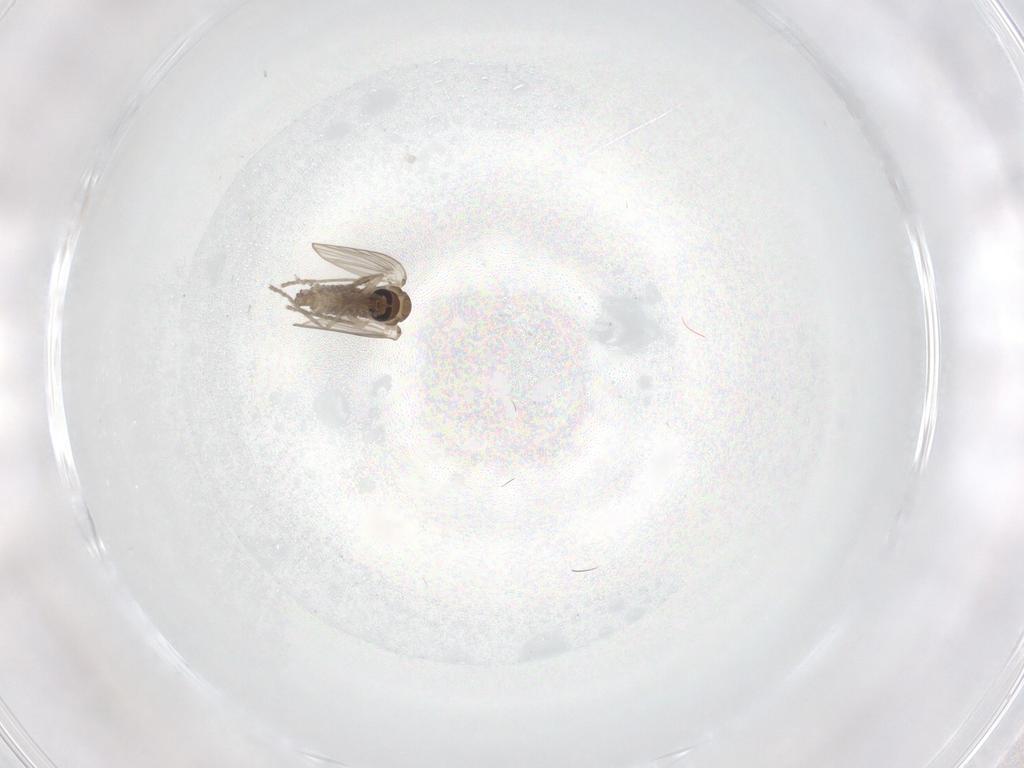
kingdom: Animalia
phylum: Arthropoda
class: Insecta
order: Diptera
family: Psychodidae
